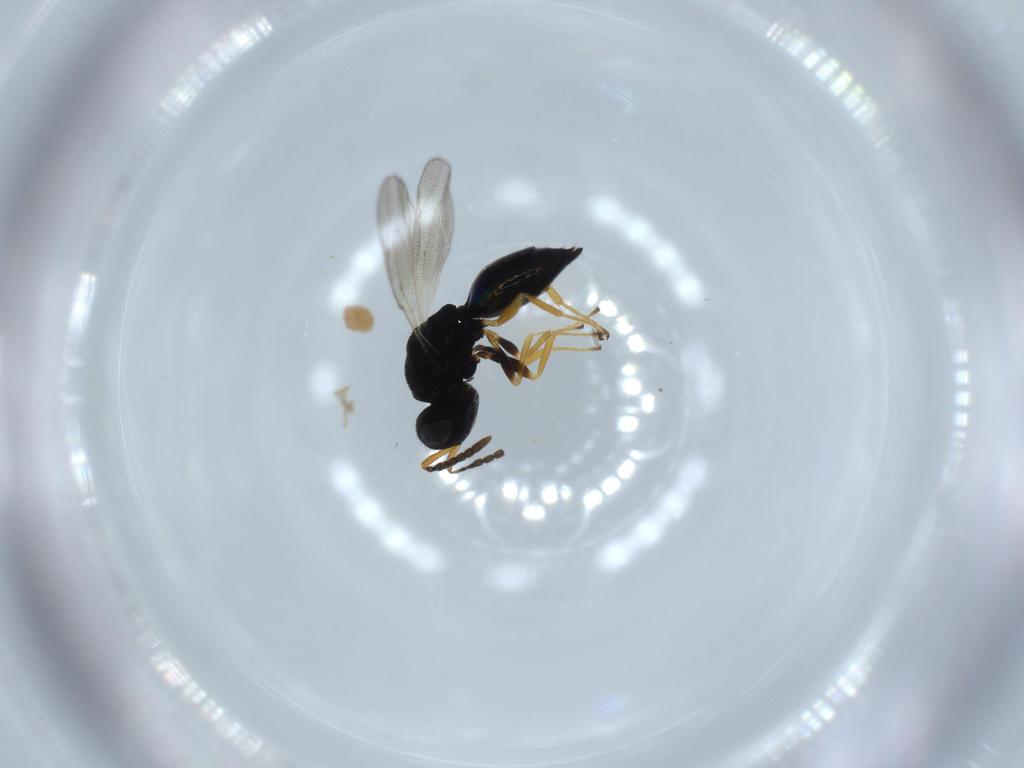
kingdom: Animalia
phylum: Arthropoda
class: Insecta
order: Hymenoptera
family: Pteromalidae
